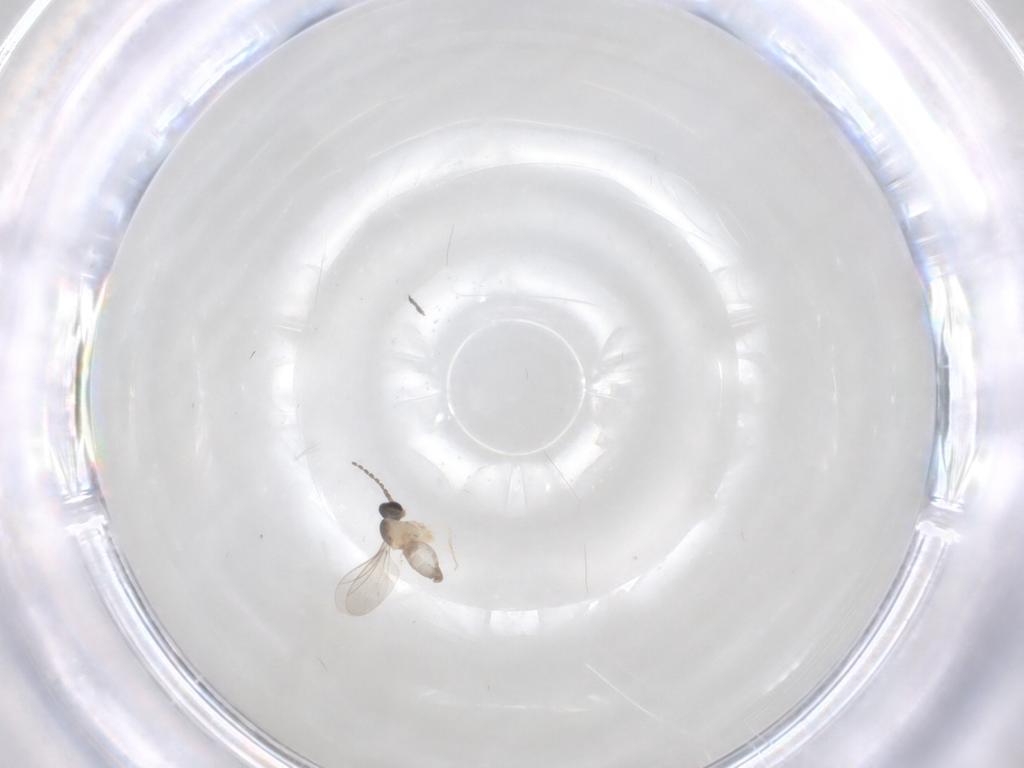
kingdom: Animalia
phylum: Arthropoda
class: Insecta
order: Diptera
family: Cecidomyiidae
